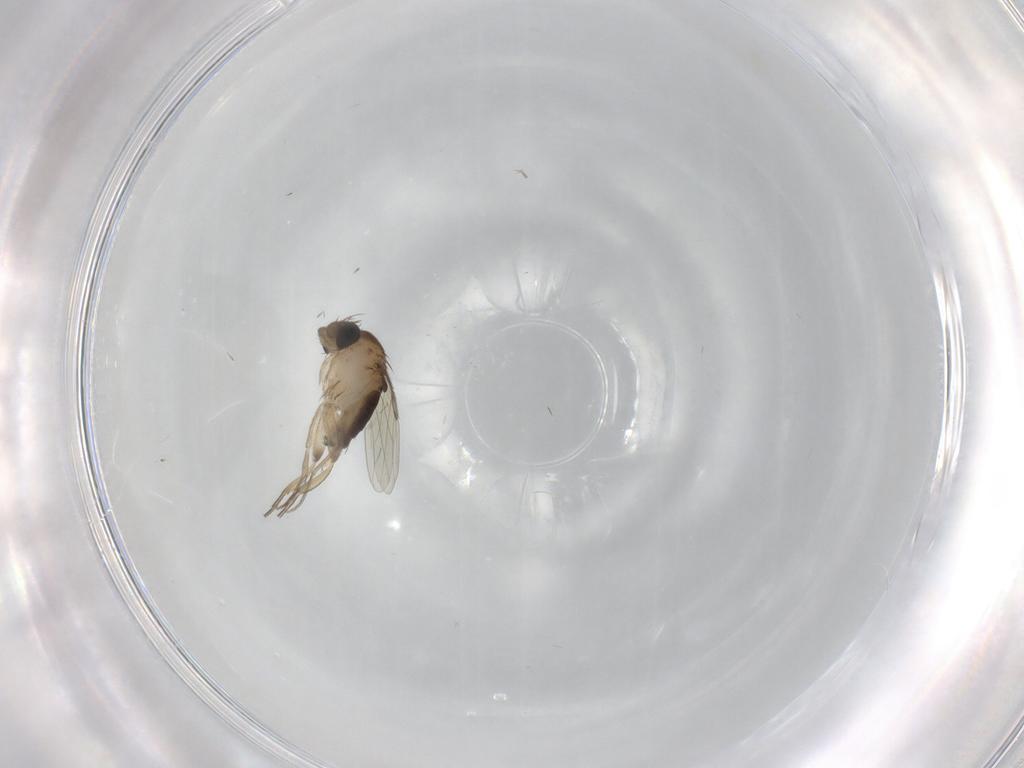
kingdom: Animalia
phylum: Arthropoda
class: Insecta
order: Diptera
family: Phoridae
